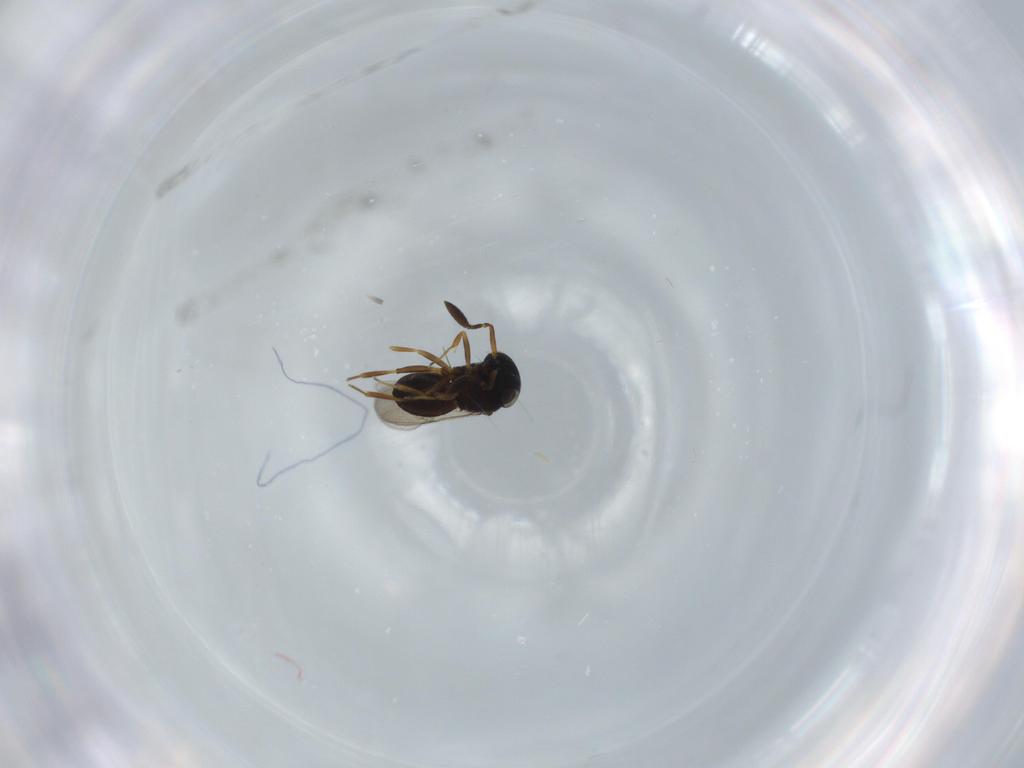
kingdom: Animalia
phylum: Arthropoda
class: Insecta
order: Hymenoptera
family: Scelionidae
